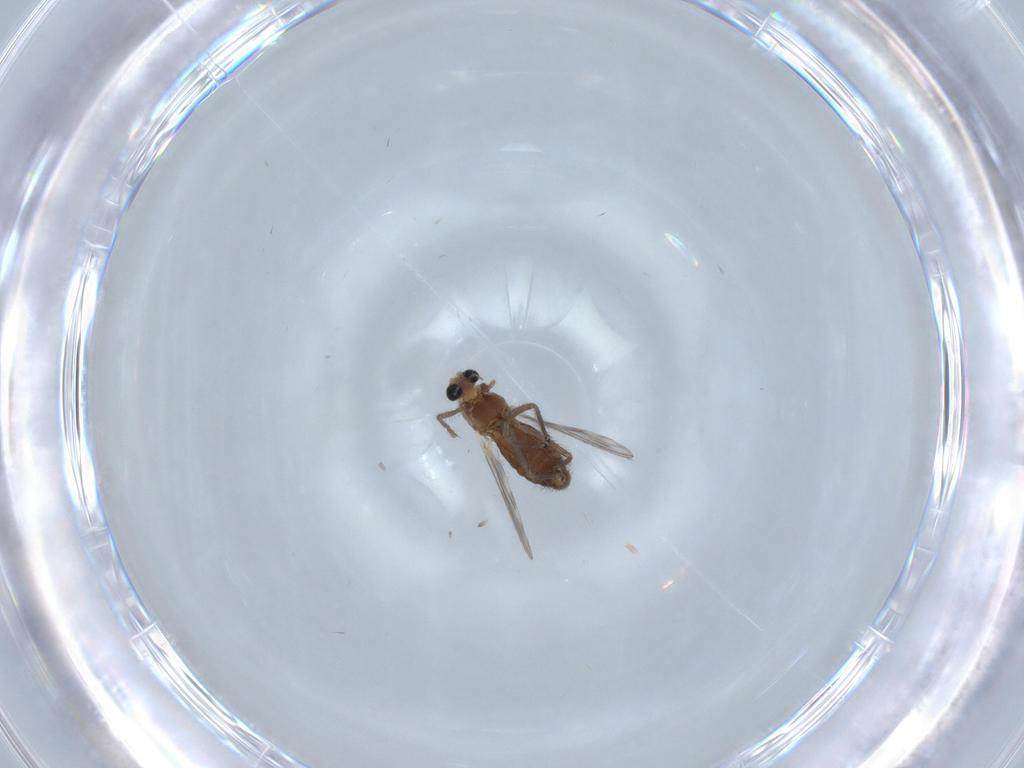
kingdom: Animalia
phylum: Arthropoda
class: Insecta
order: Diptera
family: Chironomidae
